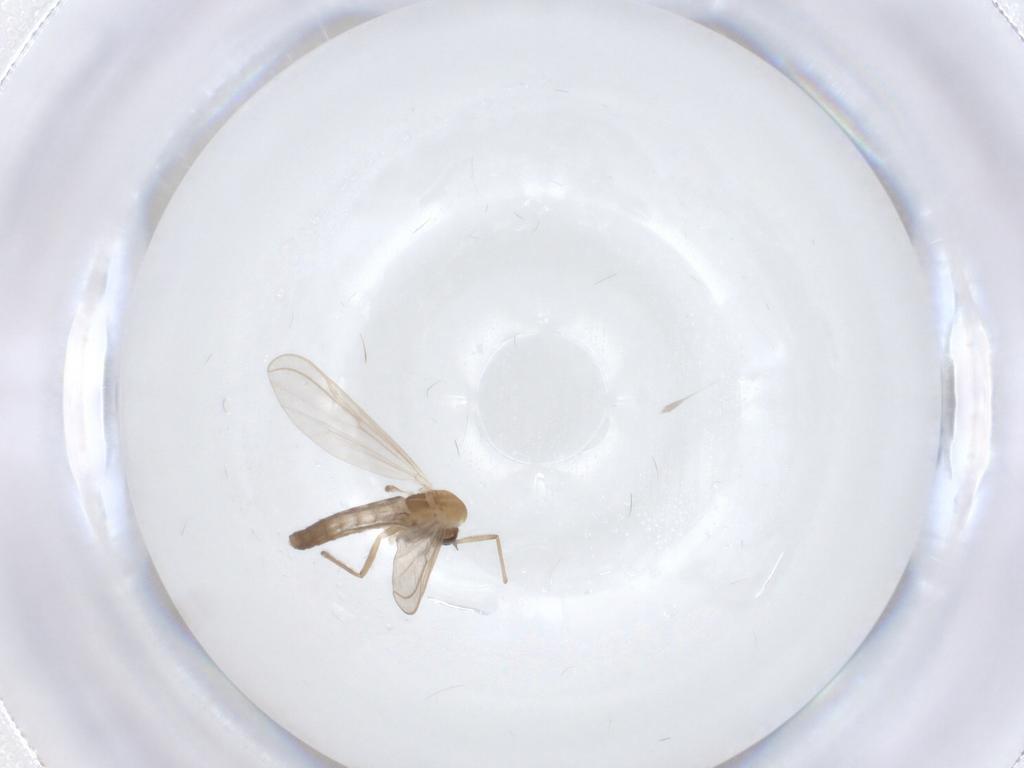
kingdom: Animalia
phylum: Arthropoda
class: Insecta
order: Diptera
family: Chironomidae
